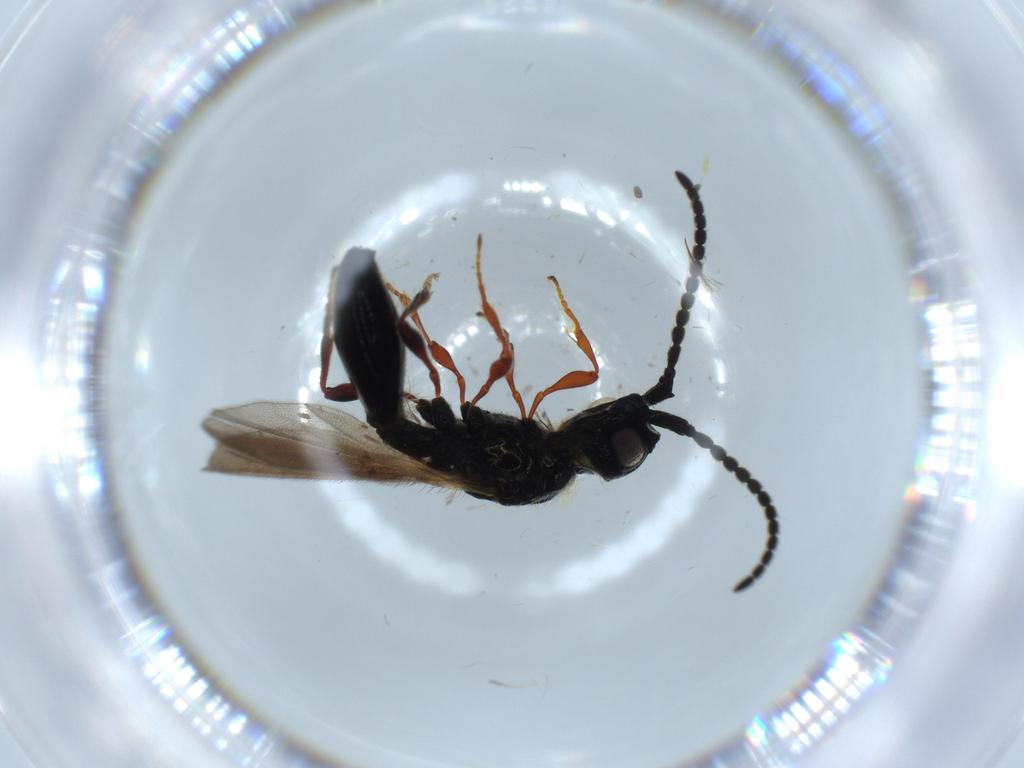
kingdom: Animalia
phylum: Arthropoda
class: Insecta
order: Hymenoptera
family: Diapriidae
